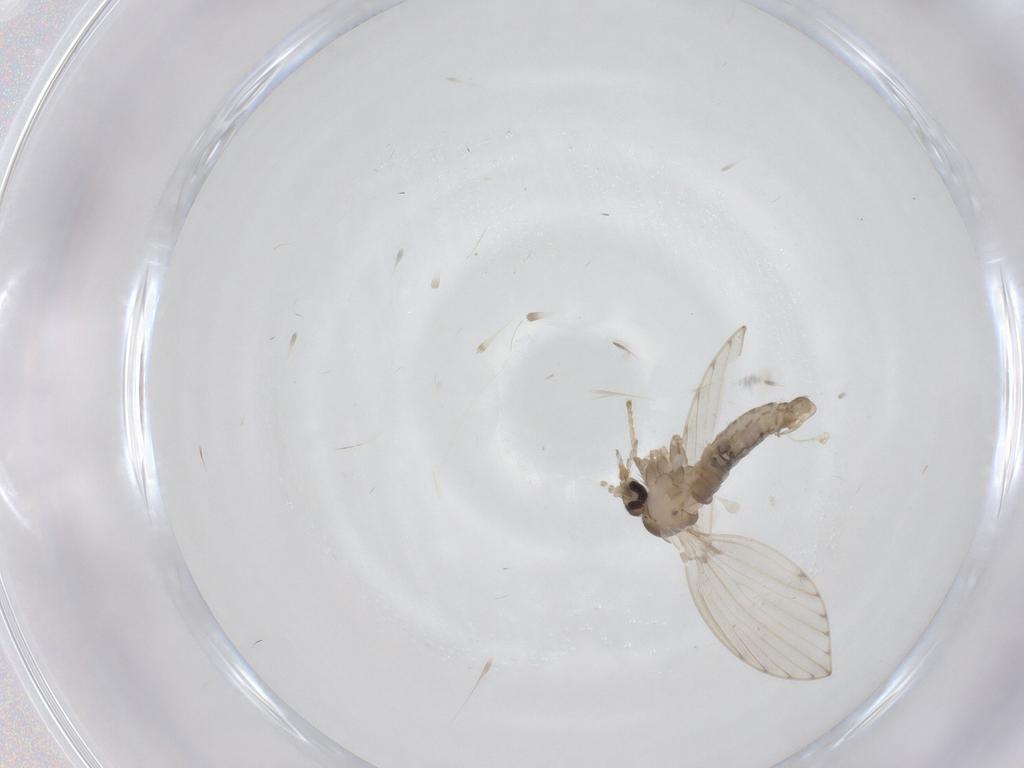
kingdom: Animalia
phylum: Arthropoda
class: Insecta
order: Diptera
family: Psychodidae
